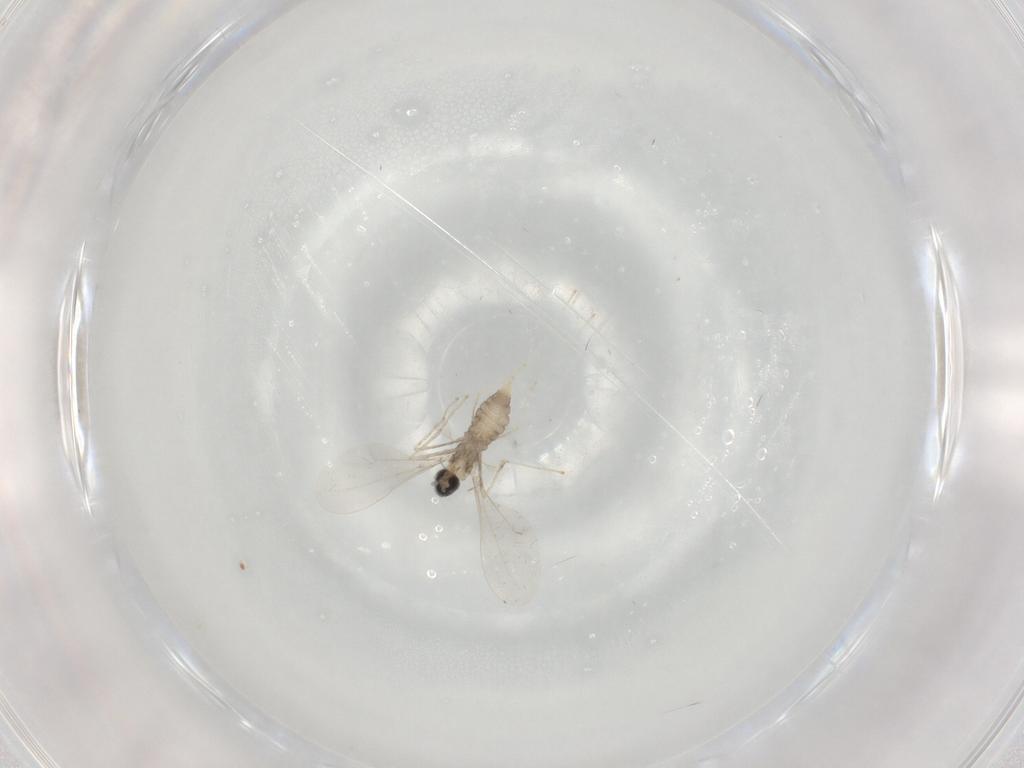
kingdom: Animalia
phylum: Arthropoda
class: Insecta
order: Diptera
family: Cecidomyiidae
